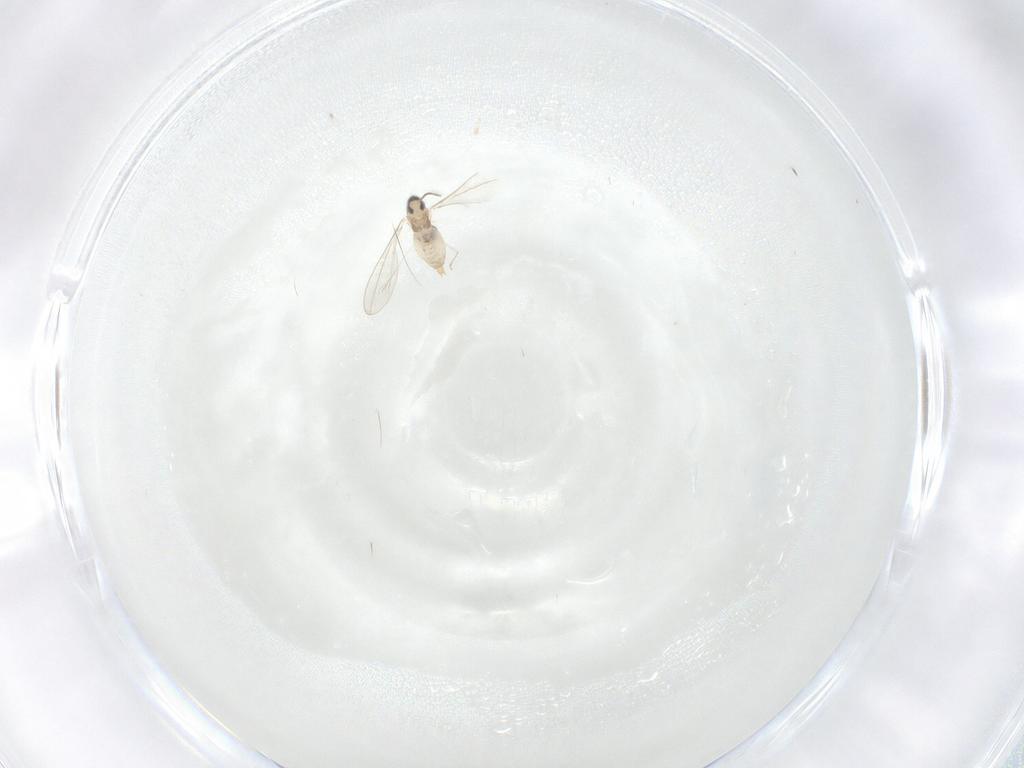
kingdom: Animalia
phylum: Arthropoda
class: Insecta
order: Diptera
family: Cecidomyiidae
